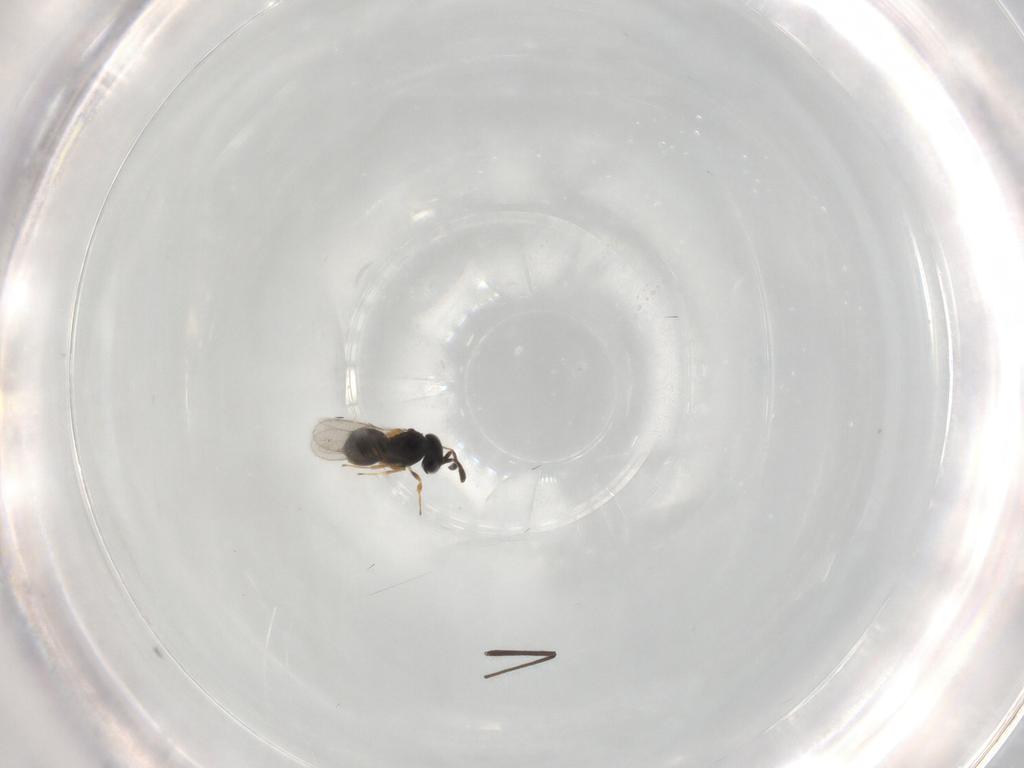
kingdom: Animalia
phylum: Arthropoda
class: Insecta
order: Hymenoptera
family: Scelionidae
